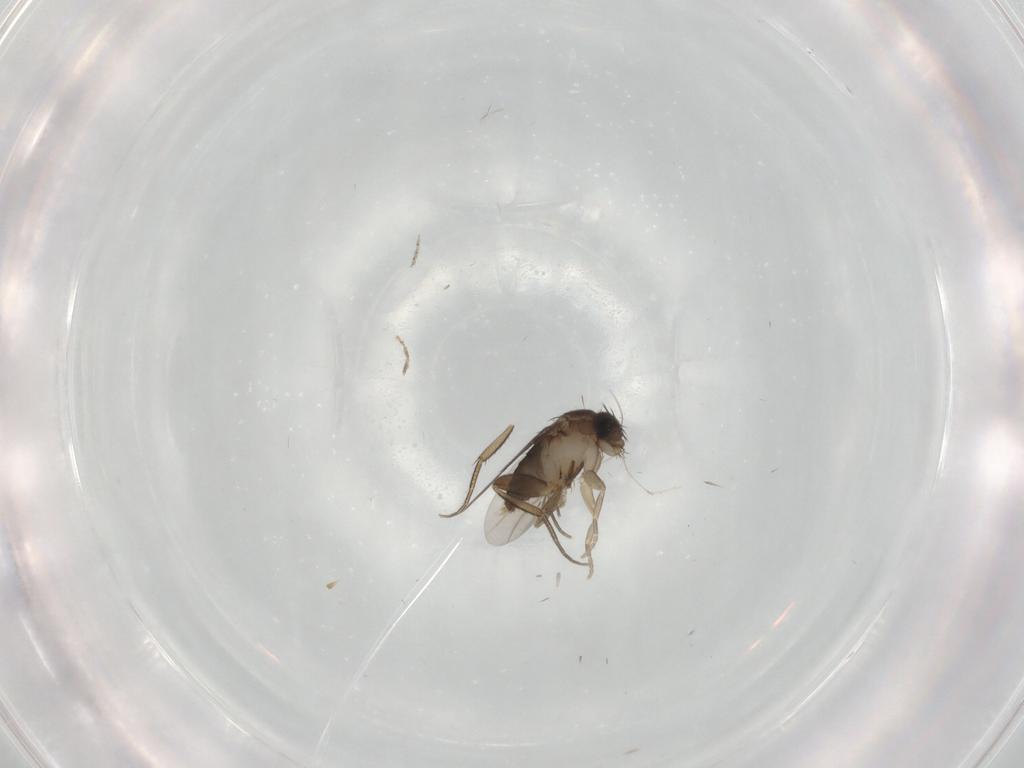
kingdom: Animalia
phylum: Arthropoda
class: Insecta
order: Diptera
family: Phoridae
